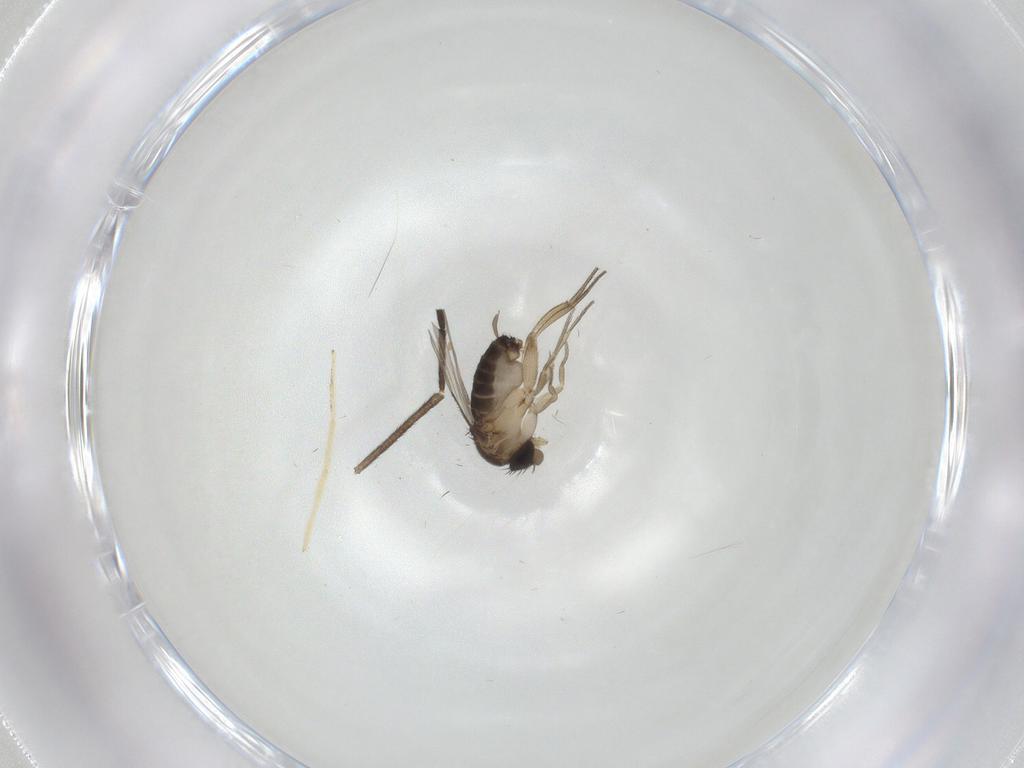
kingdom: Animalia
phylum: Arthropoda
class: Insecta
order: Diptera
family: Sciaridae
